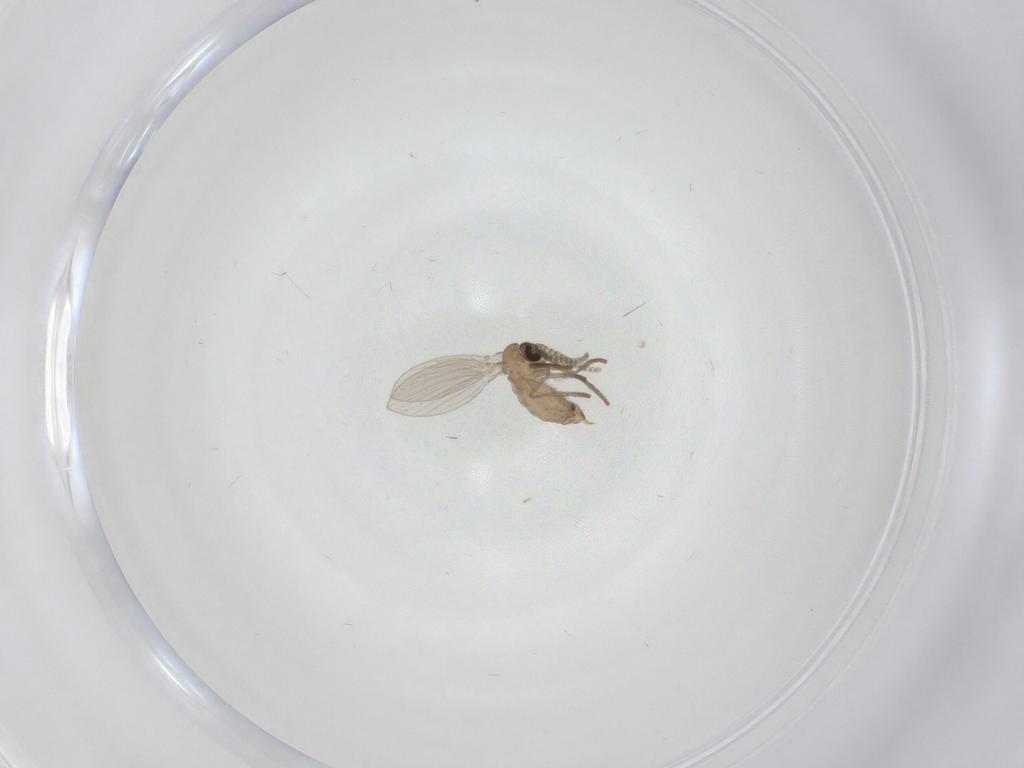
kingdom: Animalia
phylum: Arthropoda
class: Insecta
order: Diptera
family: Psychodidae
